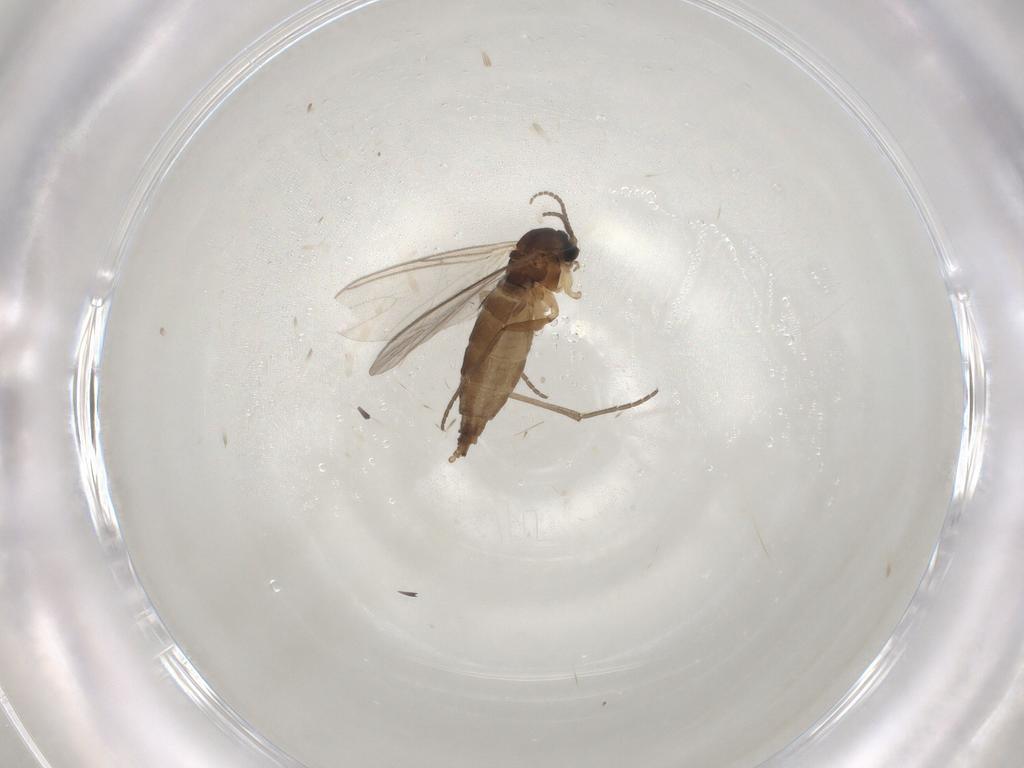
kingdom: Animalia
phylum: Arthropoda
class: Insecta
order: Diptera
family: Sciaridae
